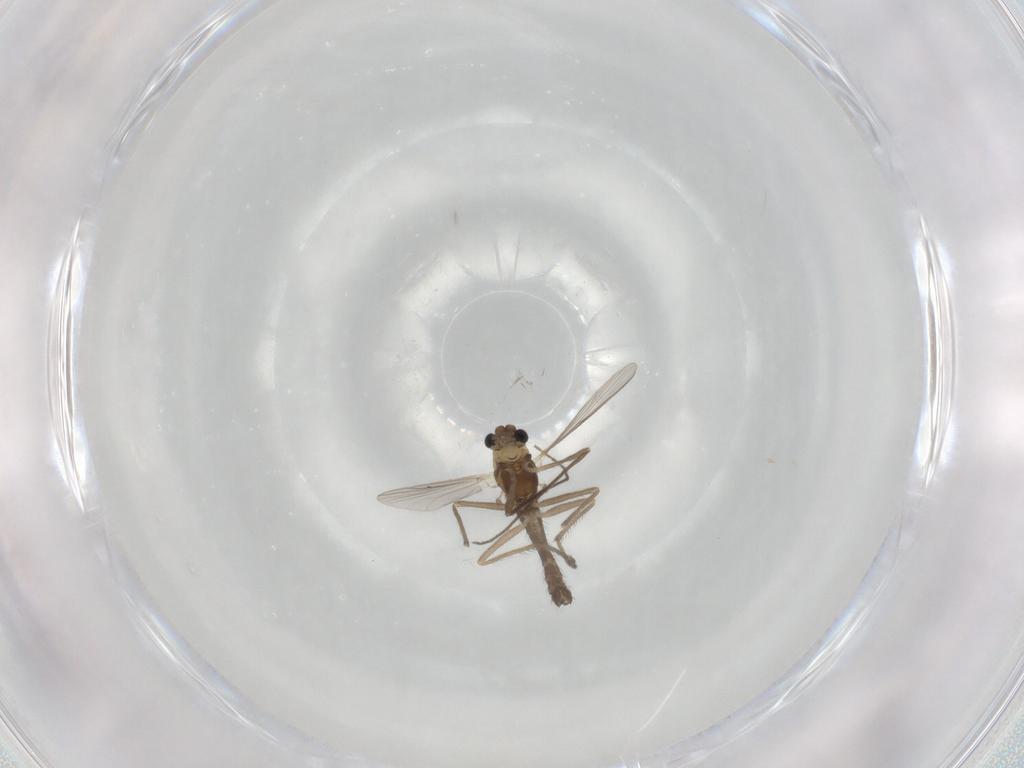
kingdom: Animalia
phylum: Arthropoda
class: Insecta
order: Diptera
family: Chironomidae
